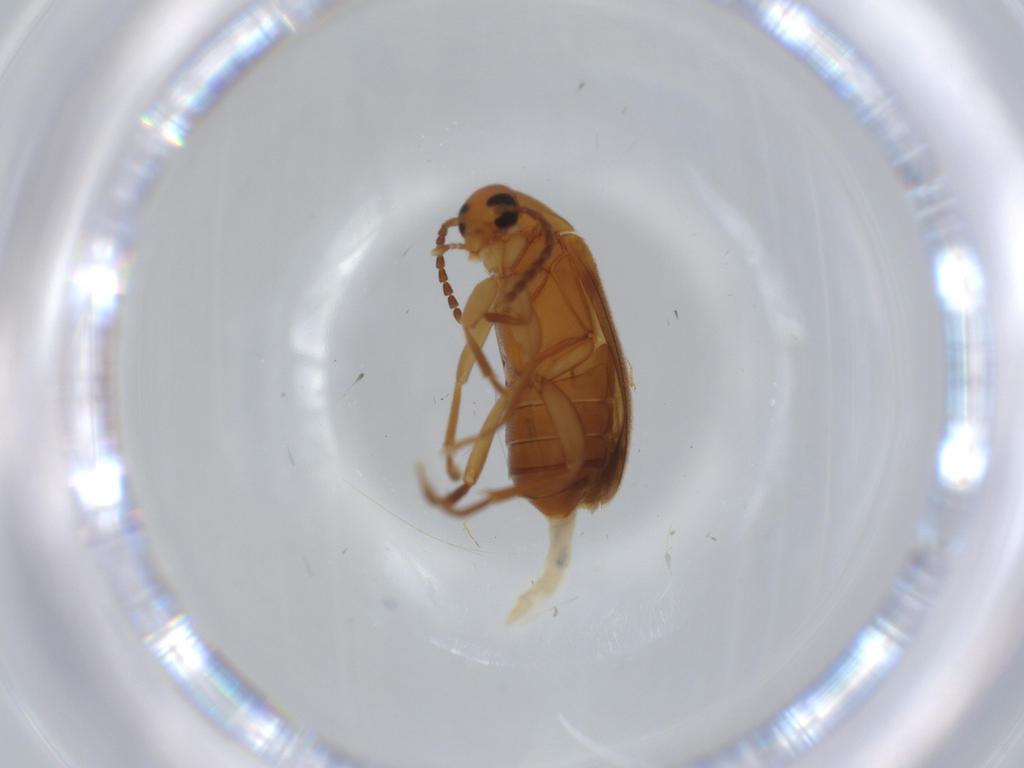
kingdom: Animalia
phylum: Arthropoda
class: Insecta
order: Coleoptera
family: Scraptiidae
